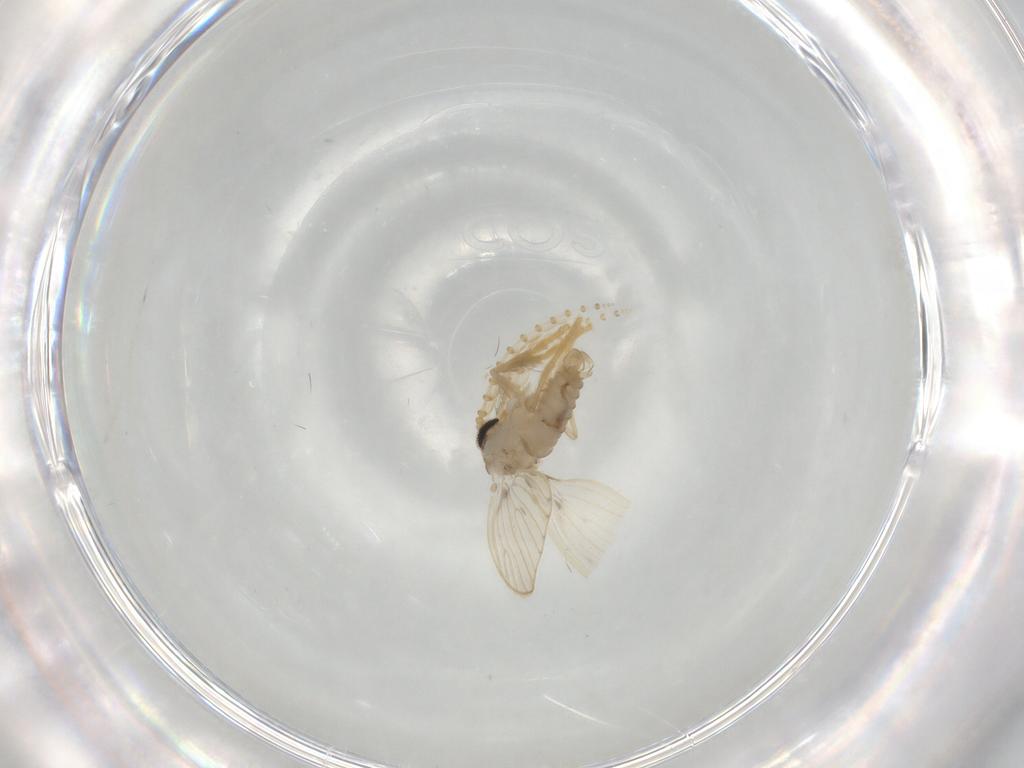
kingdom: Animalia
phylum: Arthropoda
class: Insecta
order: Diptera
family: Psychodidae
